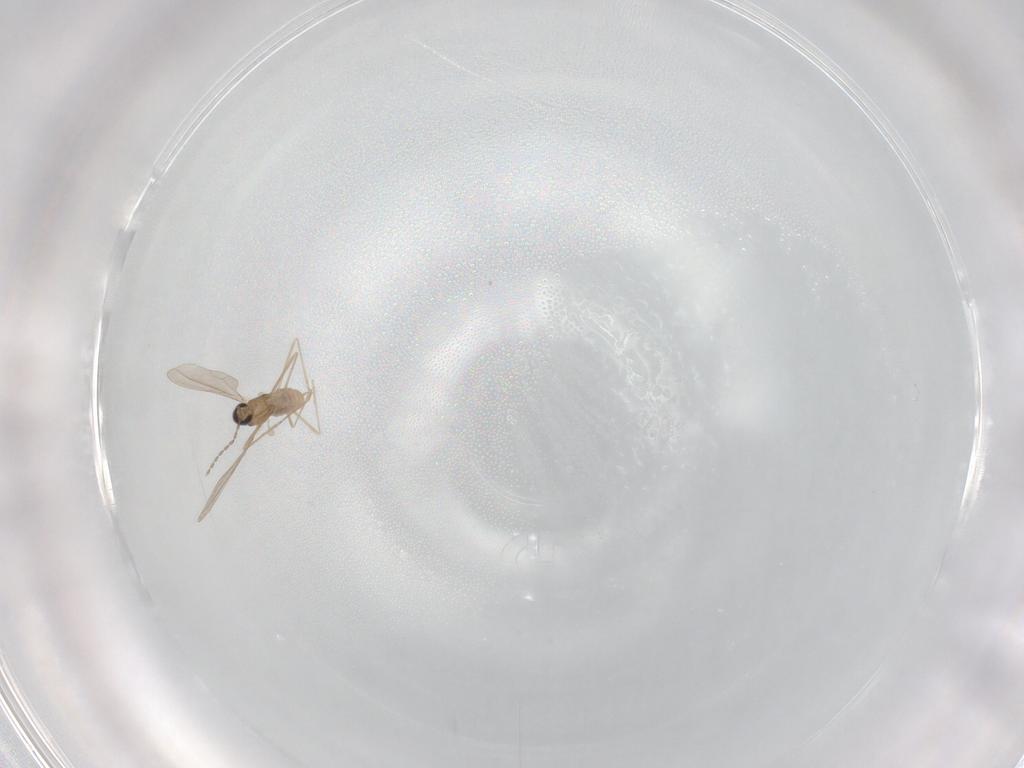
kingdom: Animalia
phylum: Arthropoda
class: Insecta
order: Diptera
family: Cecidomyiidae
